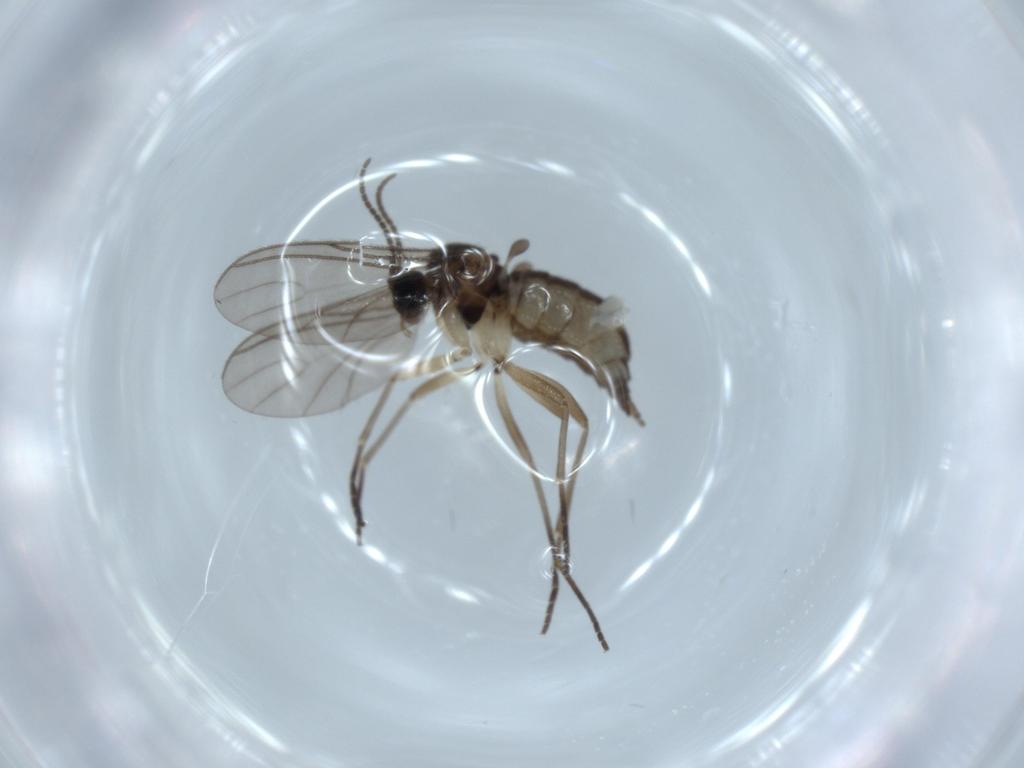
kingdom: Animalia
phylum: Arthropoda
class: Insecta
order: Diptera
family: Sciaridae
